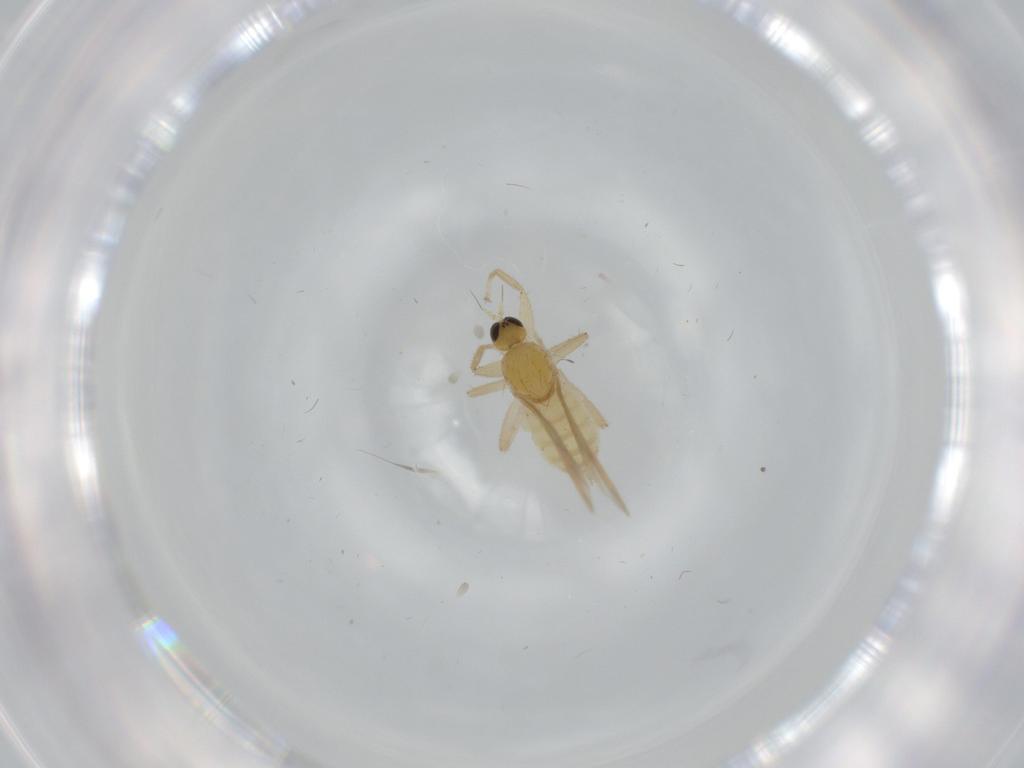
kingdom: Animalia
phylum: Arthropoda
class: Insecta
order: Diptera
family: Hybotidae
